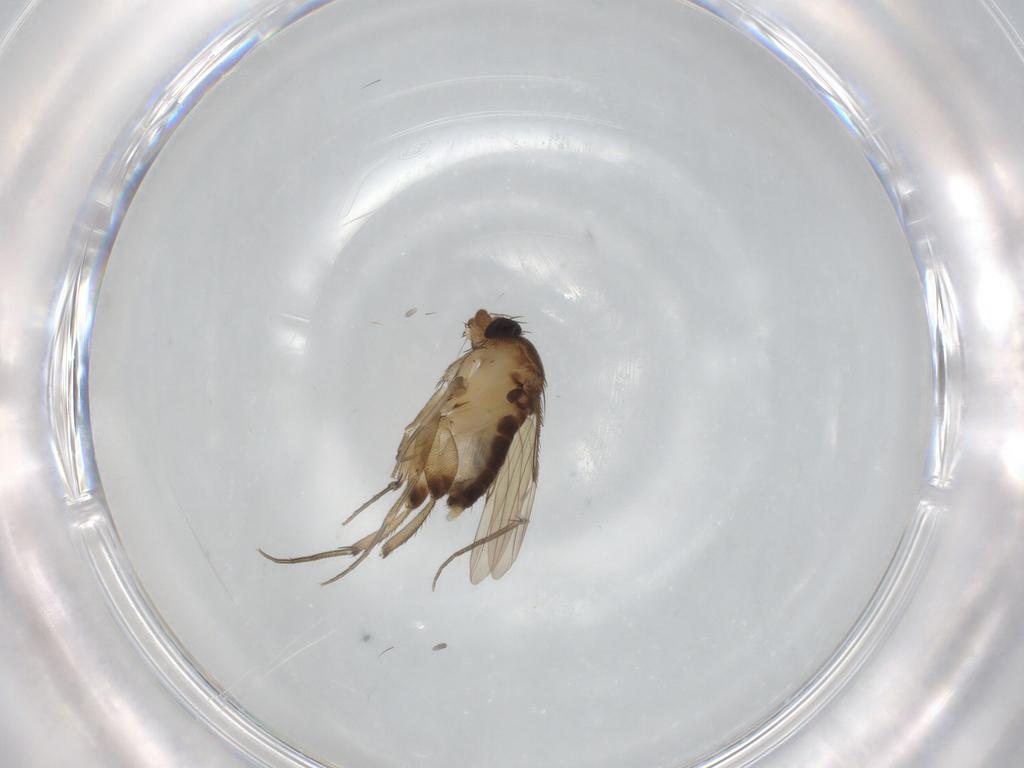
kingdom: Animalia
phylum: Arthropoda
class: Insecta
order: Diptera
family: Phoridae
